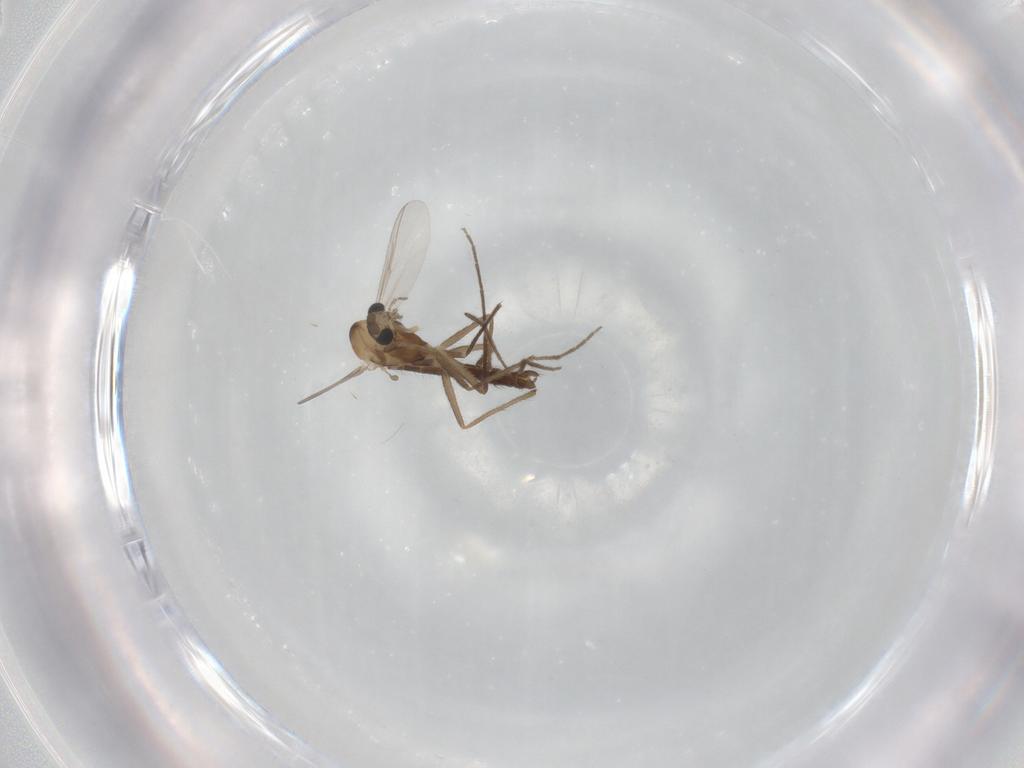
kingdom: Animalia
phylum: Arthropoda
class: Insecta
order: Diptera
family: Chironomidae
